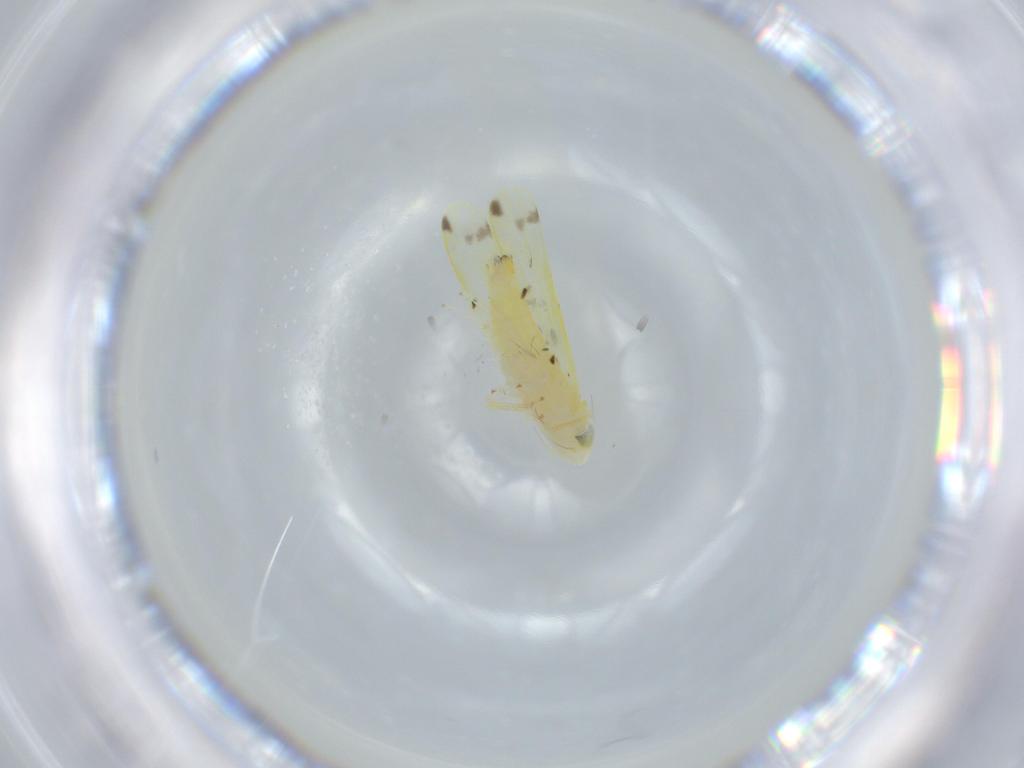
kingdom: Animalia
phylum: Arthropoda
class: Insecta
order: Hemiptera
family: Cicadellidae
